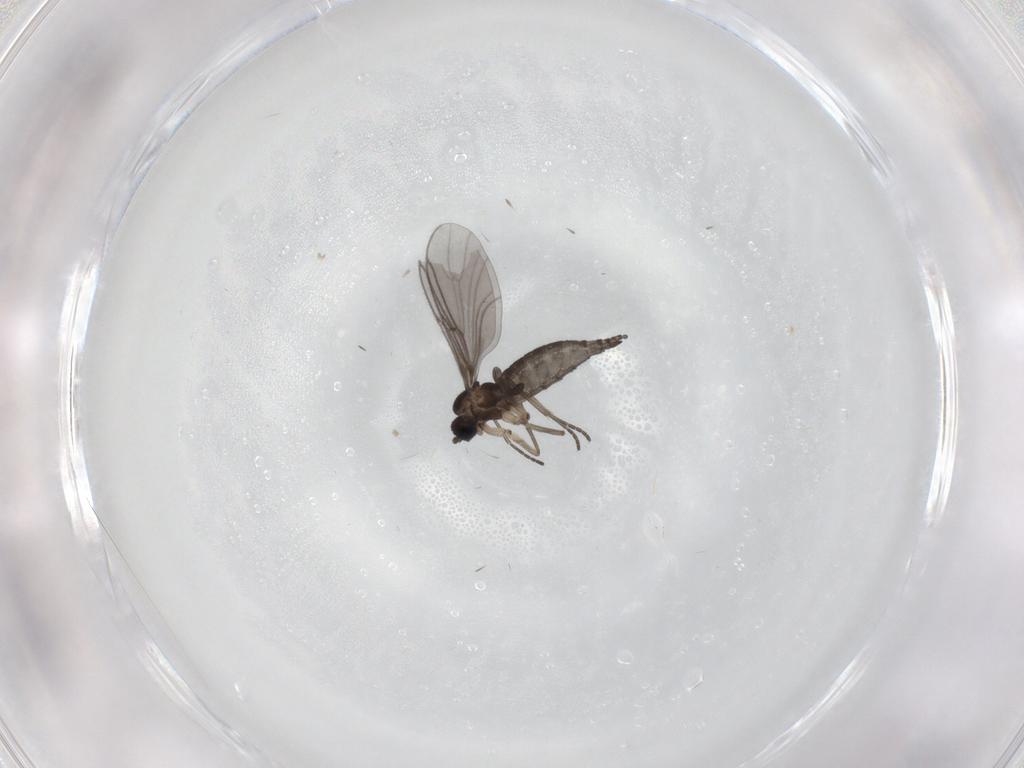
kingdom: Animalia
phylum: Arthropoda
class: Insecta
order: Diptera
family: Sciaridae
